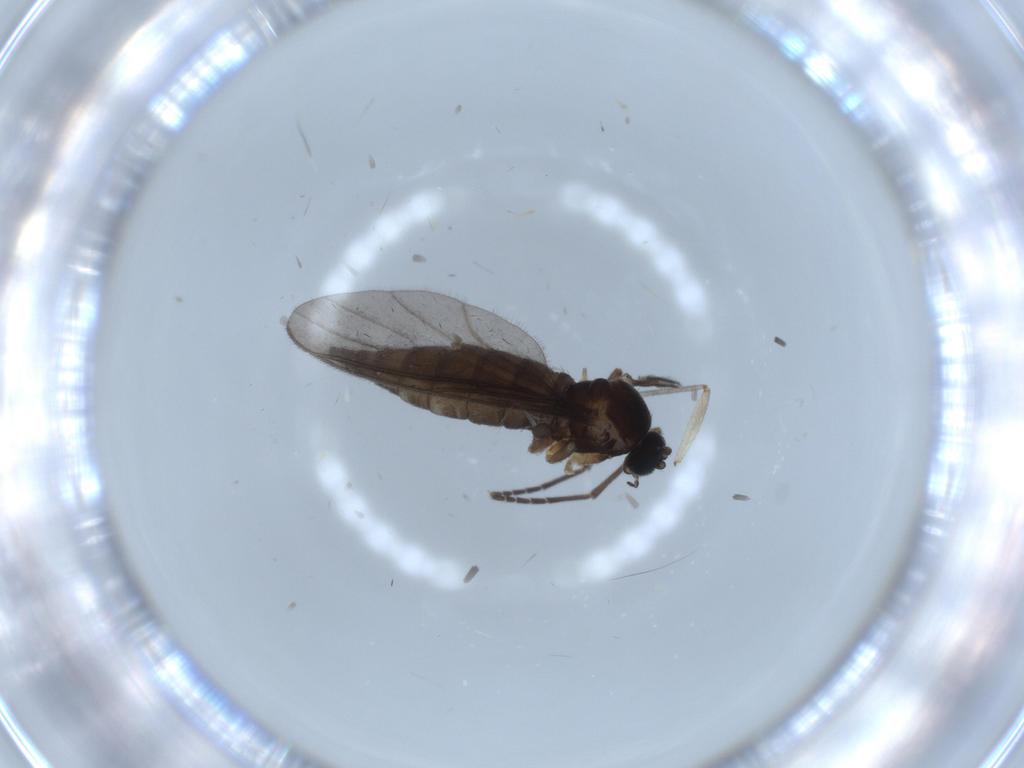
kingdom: Animalia
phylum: Arthropoda
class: Insecta
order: Diptera
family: Sciaridae
